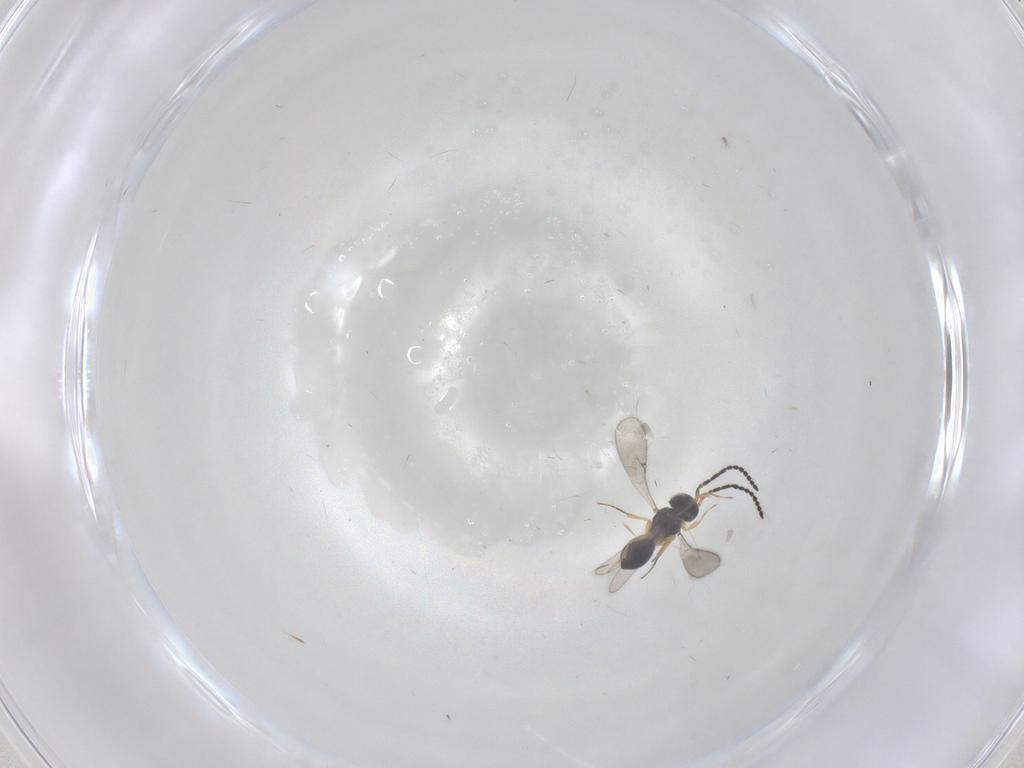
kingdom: Animalia
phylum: Arthropoda
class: Insecta
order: Hymenoptera
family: Scelionidae
